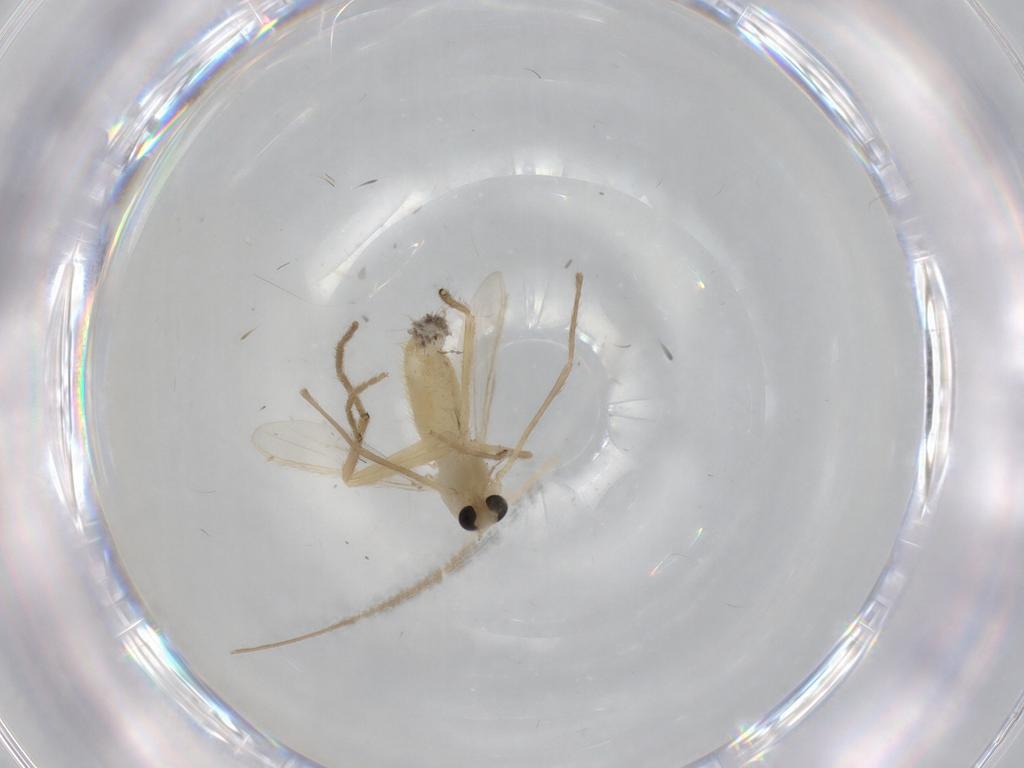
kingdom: Animalia
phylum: Arthropoda
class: Insecta
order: Diptera
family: Chironomidae
